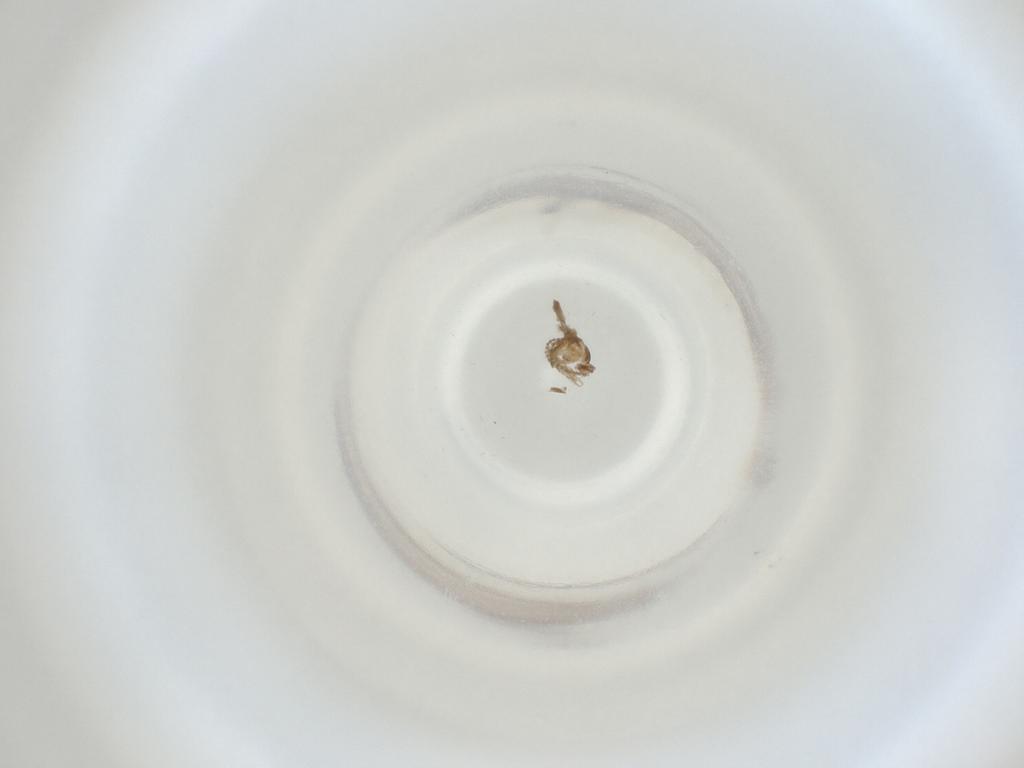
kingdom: Animalia
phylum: Arthropoda
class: Insecta
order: Diptera
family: Cecidomyiidae
